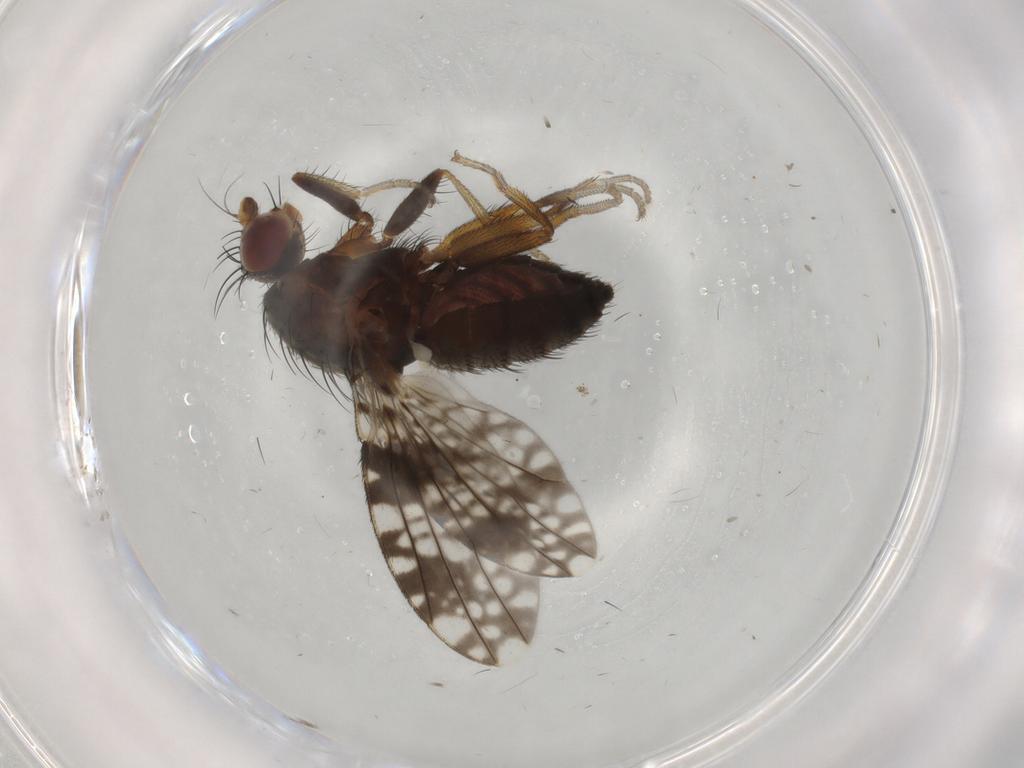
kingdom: Animalia
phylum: Arthropoda
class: Insecta
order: Diptera
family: Tephritidae
